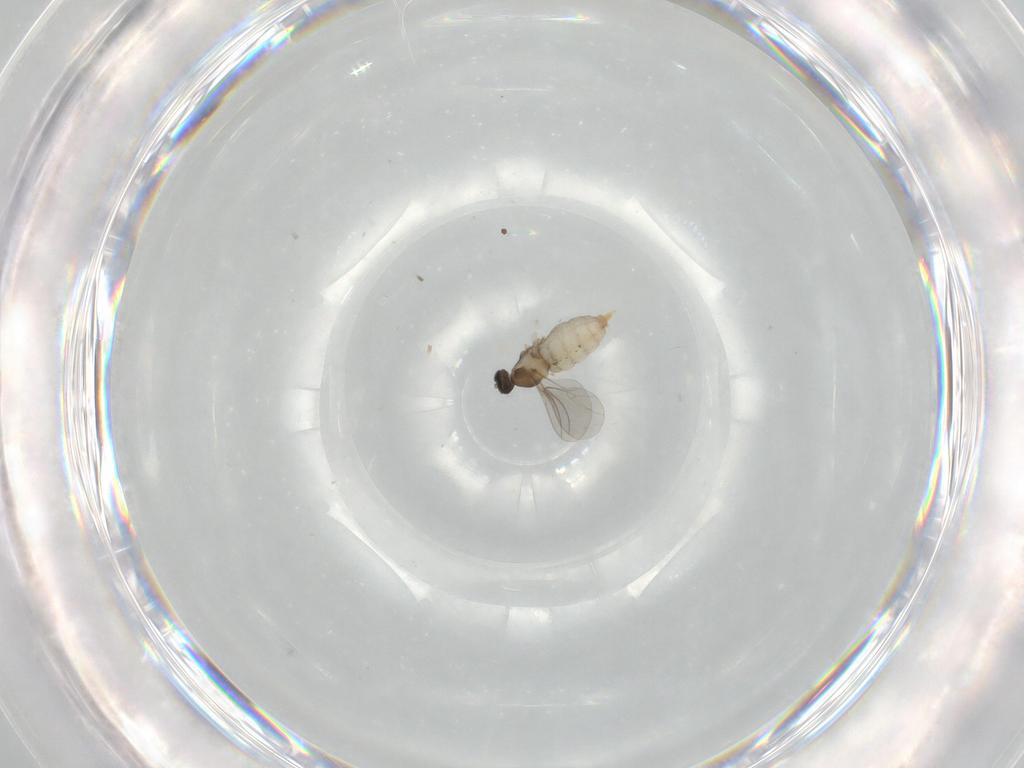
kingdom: Animalia
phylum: Arthropoda
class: Insecta
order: Diptera
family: Cecidomyiidae
